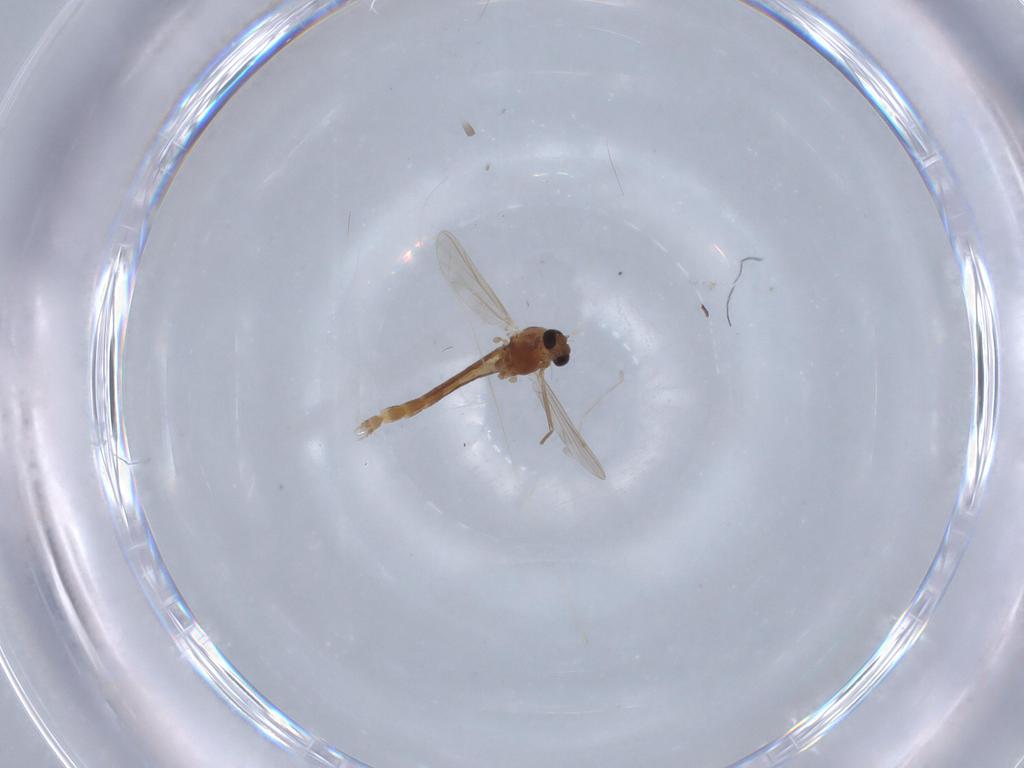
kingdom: Animalia
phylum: Arthropoda
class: Insecta
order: Diptera
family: Chironomidae
